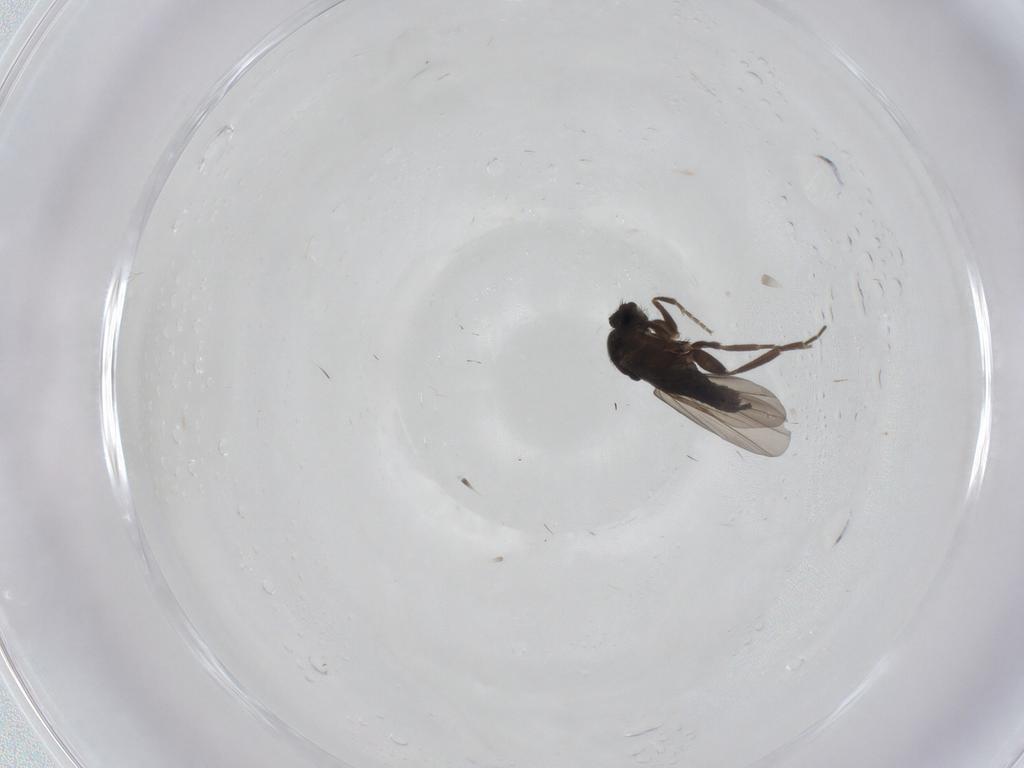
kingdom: Animalia
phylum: Arthropoda
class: Insecta
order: Diptera
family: Phoridae
